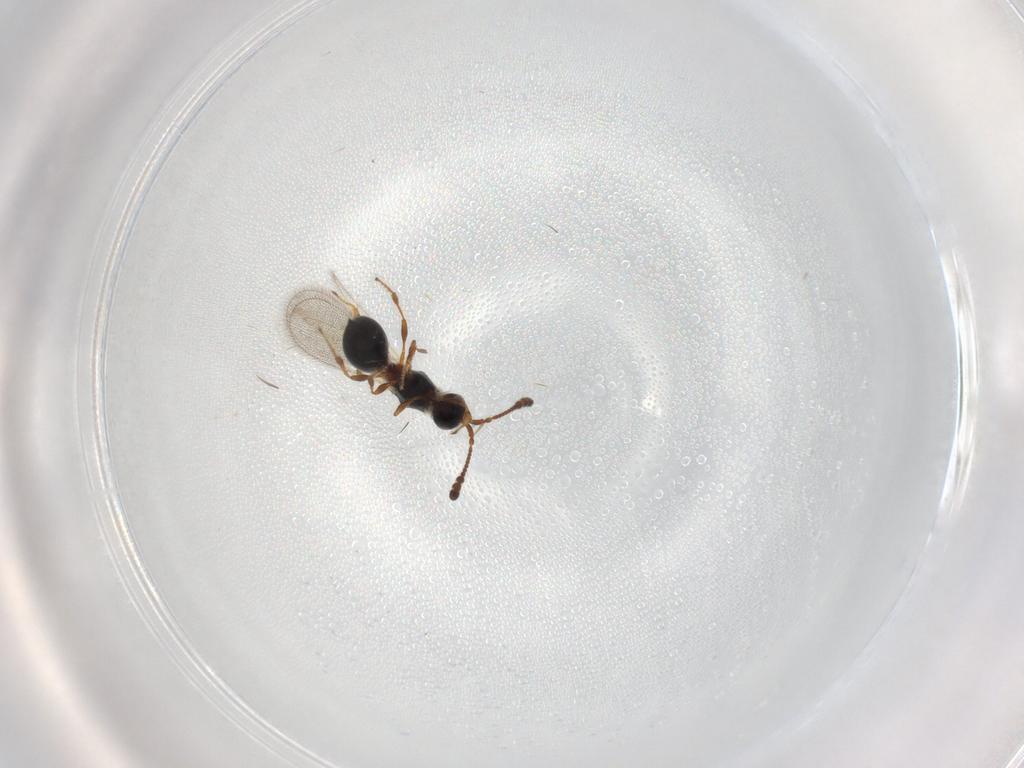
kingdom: Animalia
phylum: Arthropoda
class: Insecta
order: Hymenoptera
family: Diapriidae
